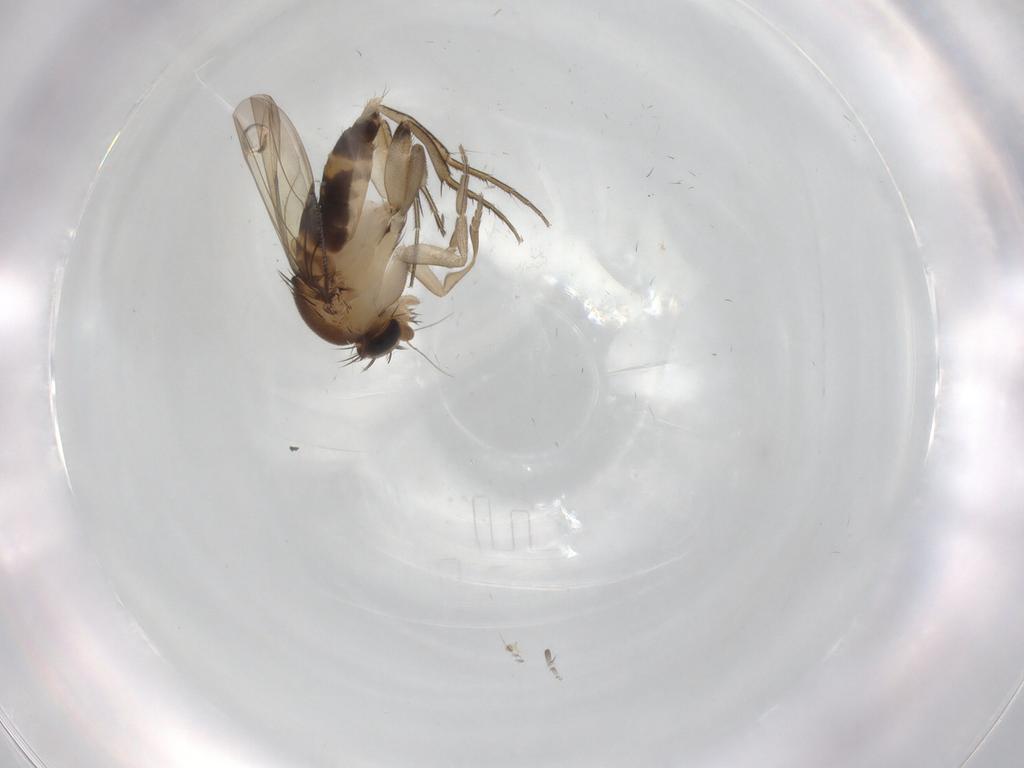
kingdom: Animalia
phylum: Arthropoda
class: Insecta
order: Diptera
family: Phoridae
